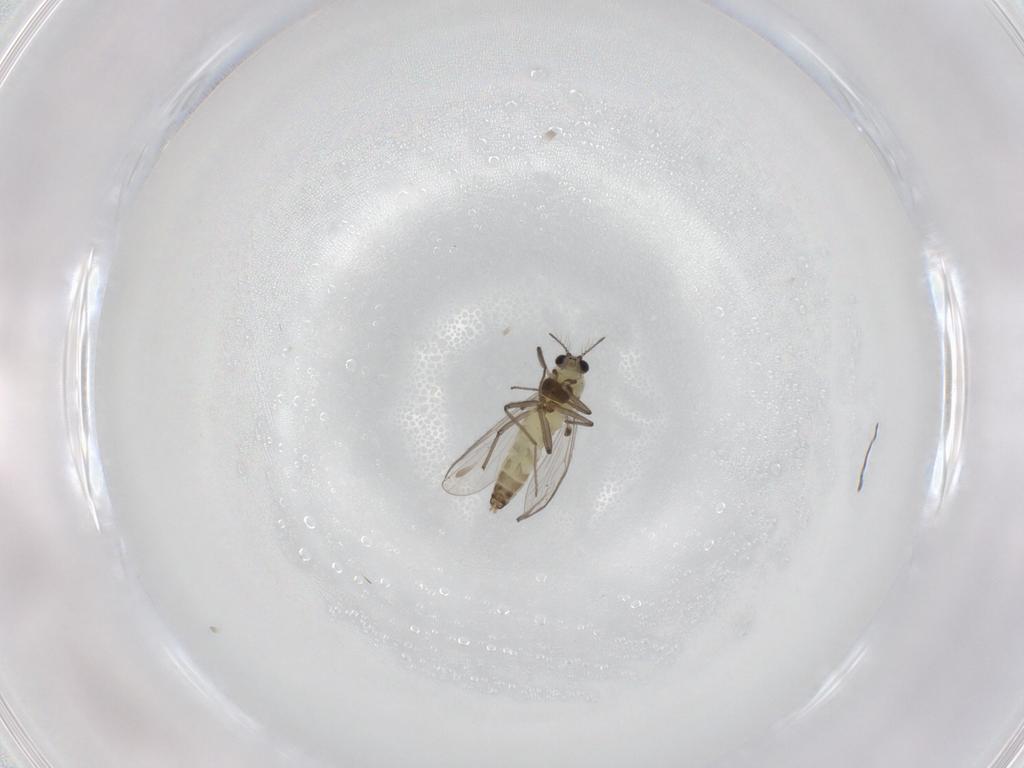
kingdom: Animalia
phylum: Arthropoda
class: Insecta
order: Diptera
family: Chironomidae
